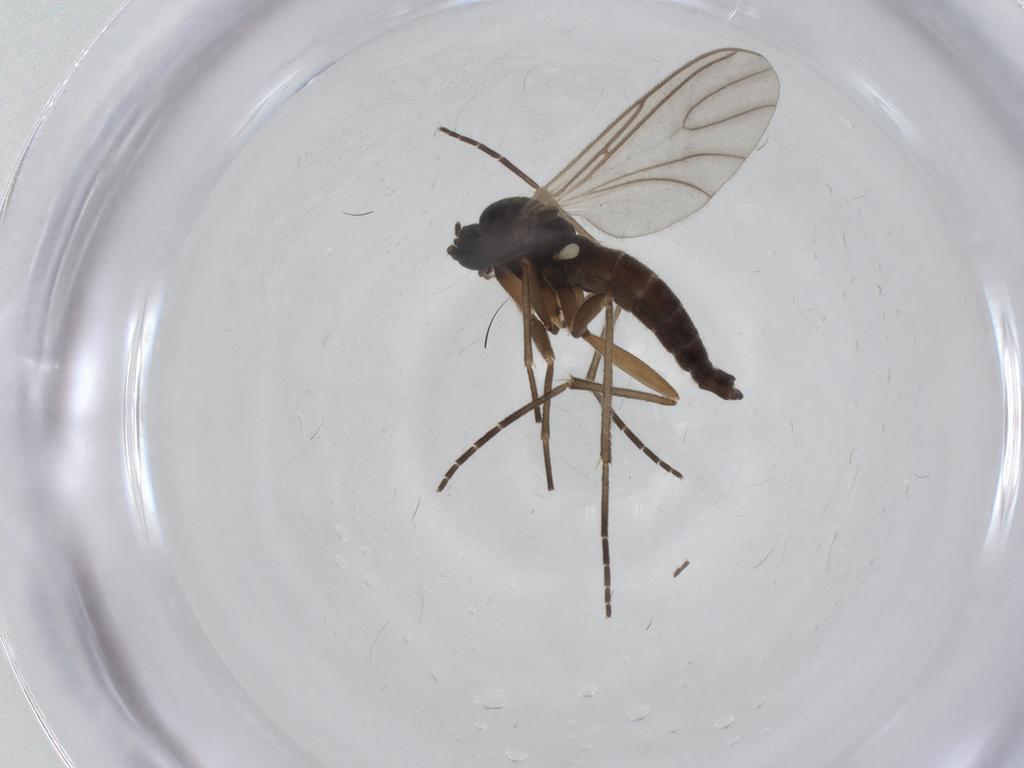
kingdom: Animalia
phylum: Arthropoda
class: Insecta
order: Diptera
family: Sciaridae
